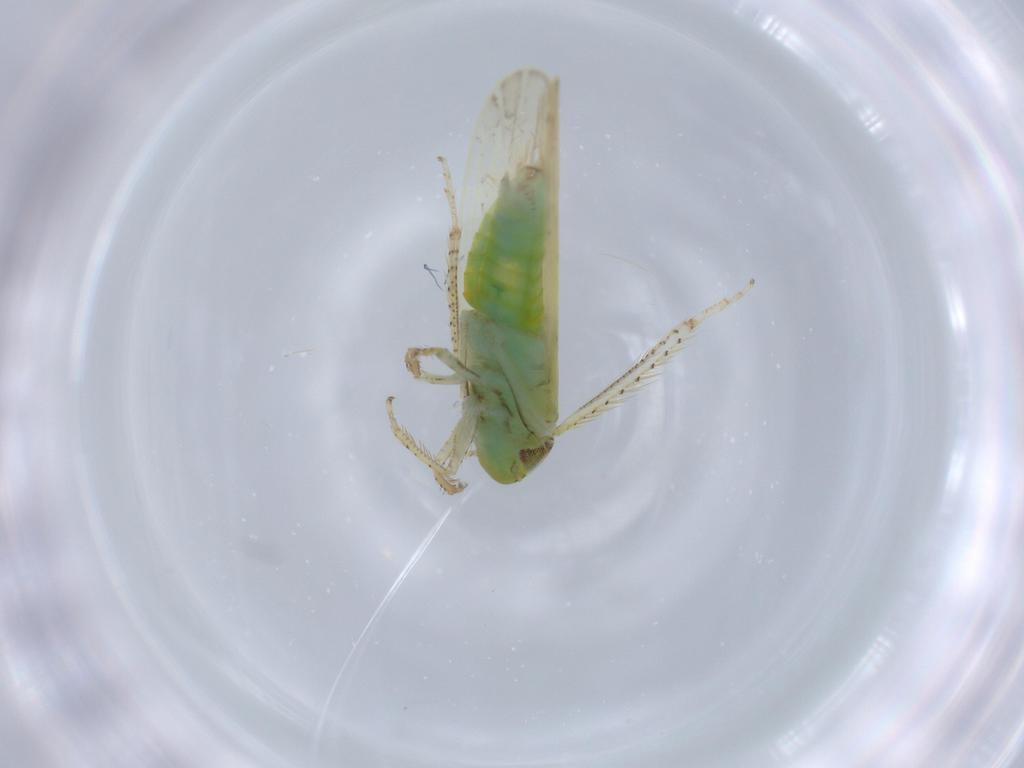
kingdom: Animalia
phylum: Arthropoda
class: Insecta
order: Hemiptera
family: Cicadellidae
